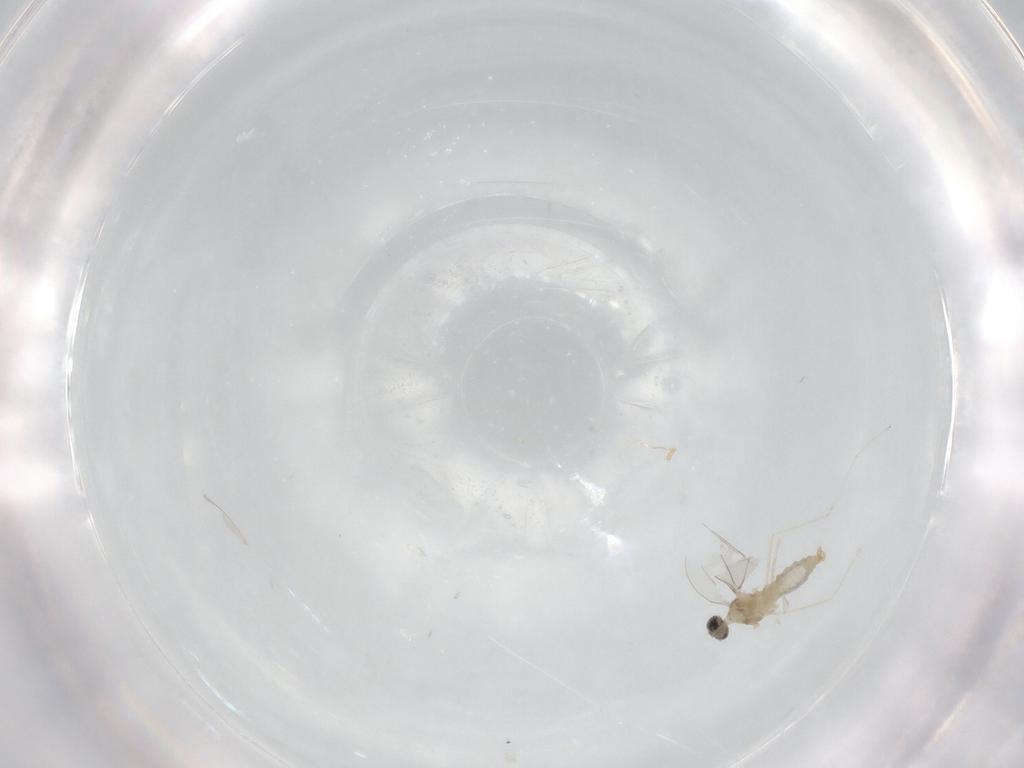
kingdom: Animalia
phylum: Arthropoda
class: Insecta
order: Diptera
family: Cecidomyiidae
